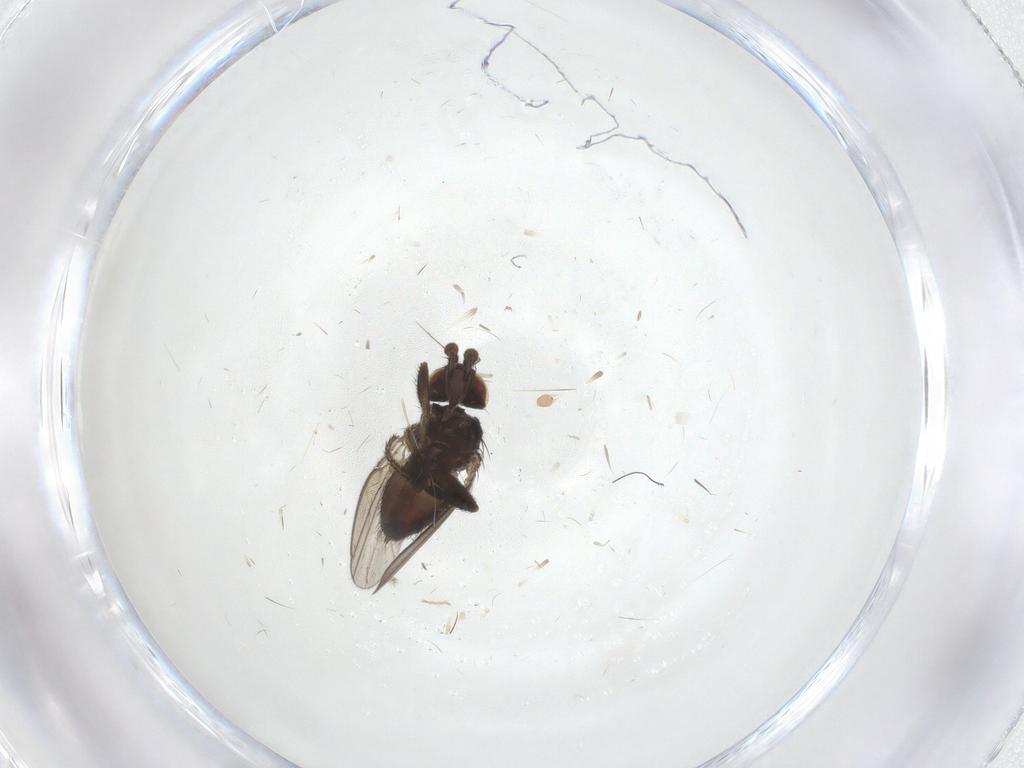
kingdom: Animalia
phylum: Arthropoda
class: Insecta
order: Diptera
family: Milichiidae
